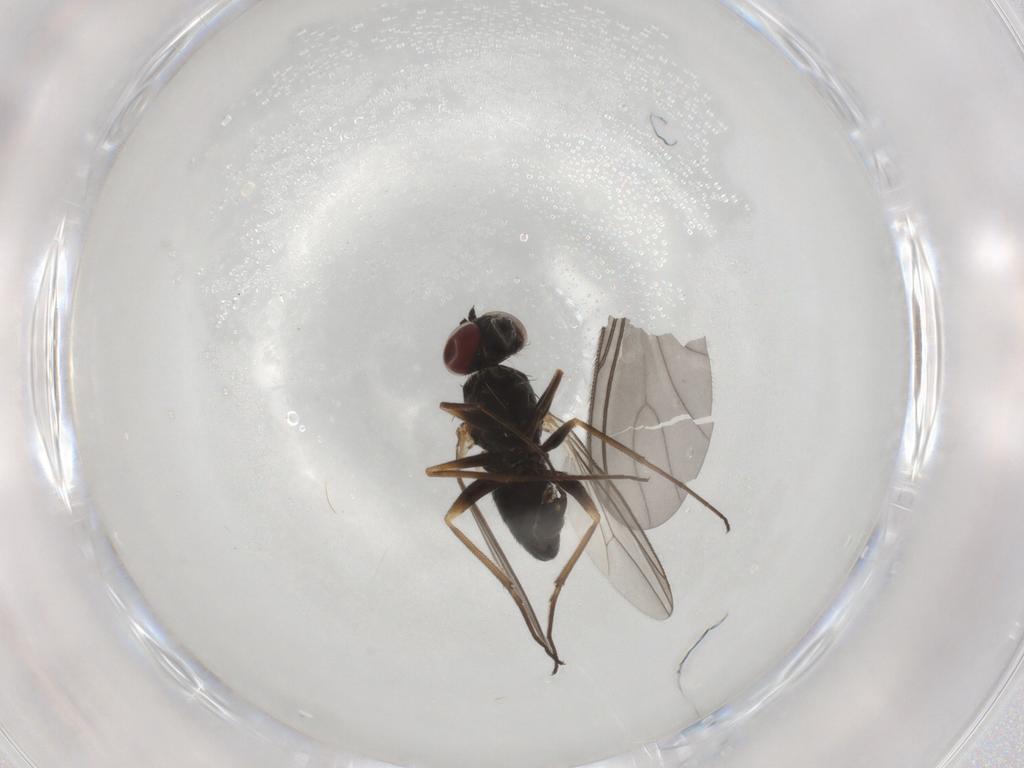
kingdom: Animalia
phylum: Arthropoda
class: Insecta
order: Diptera
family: Dolichopodidae
